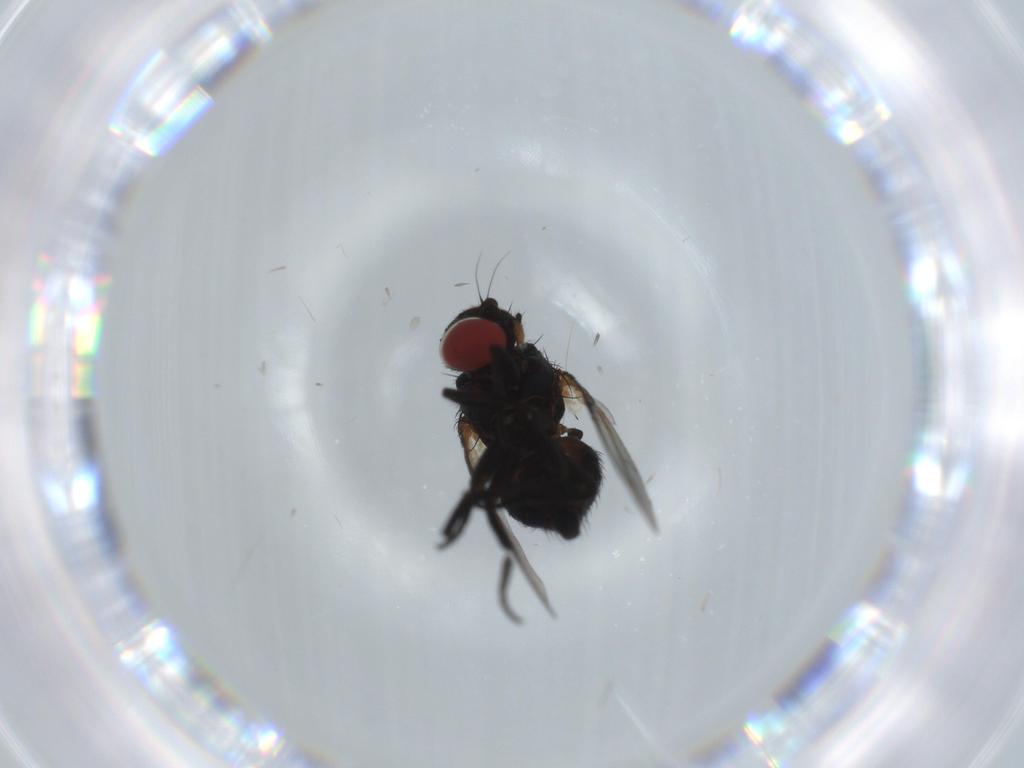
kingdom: Animalia
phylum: Arthropoda
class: Insecta
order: Diptera
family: Agromyzidae
